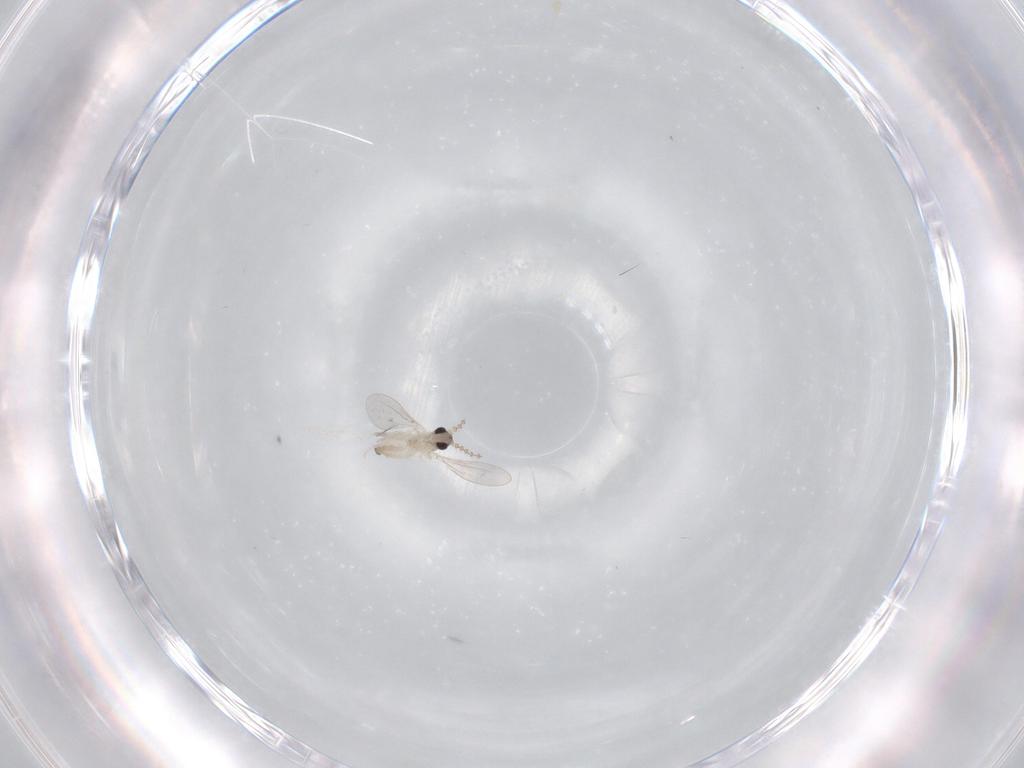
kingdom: Animalia
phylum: Arthropoda
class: Insecta
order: Diptera
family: Cecidomyiidae
